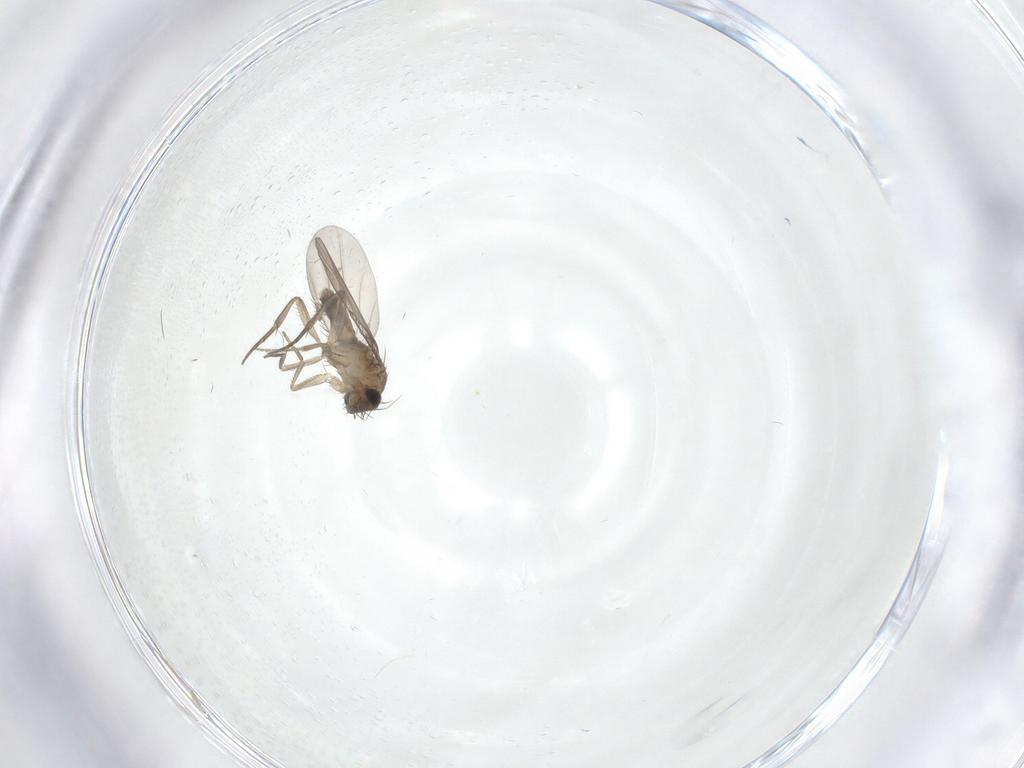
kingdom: Animalia
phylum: Arthropoda
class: Insecta
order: Diptera
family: Phoridae
